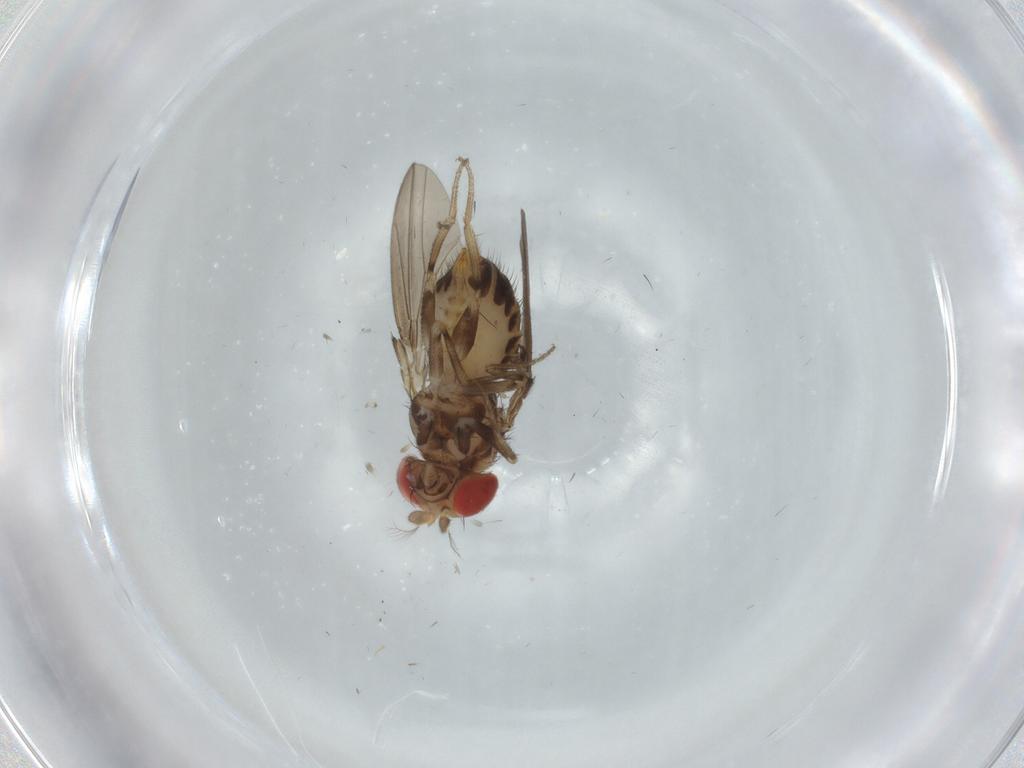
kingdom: Animalia
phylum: Arthropoda
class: Insecta
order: Diptera
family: Drosophilidae
